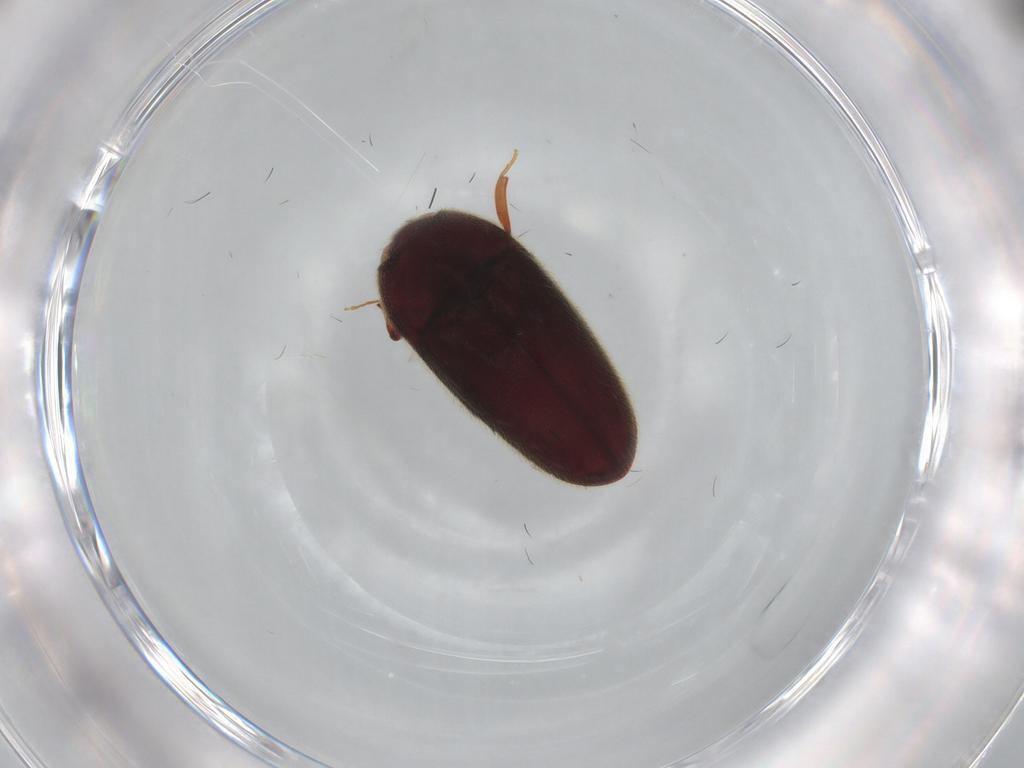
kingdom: Animalia
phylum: Arthropoda
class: Insecta
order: Coleoptera
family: Throscidae
